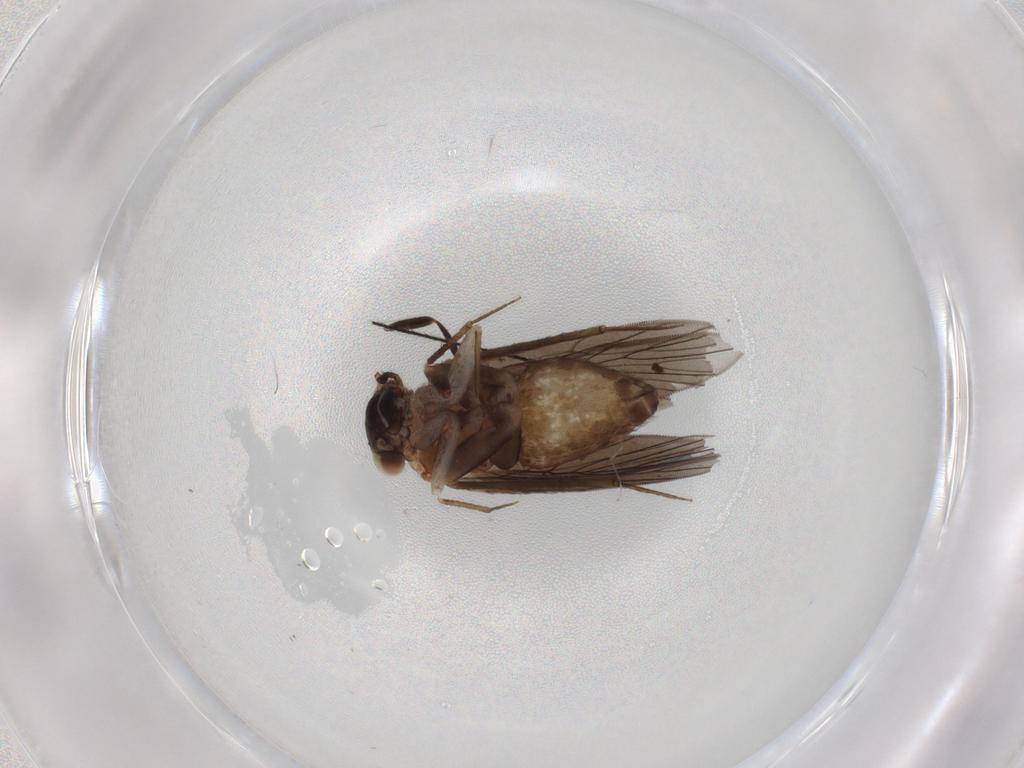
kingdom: Animalia
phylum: Arthropoda
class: Insecta
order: Psocodea
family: Lepidopsocidae
